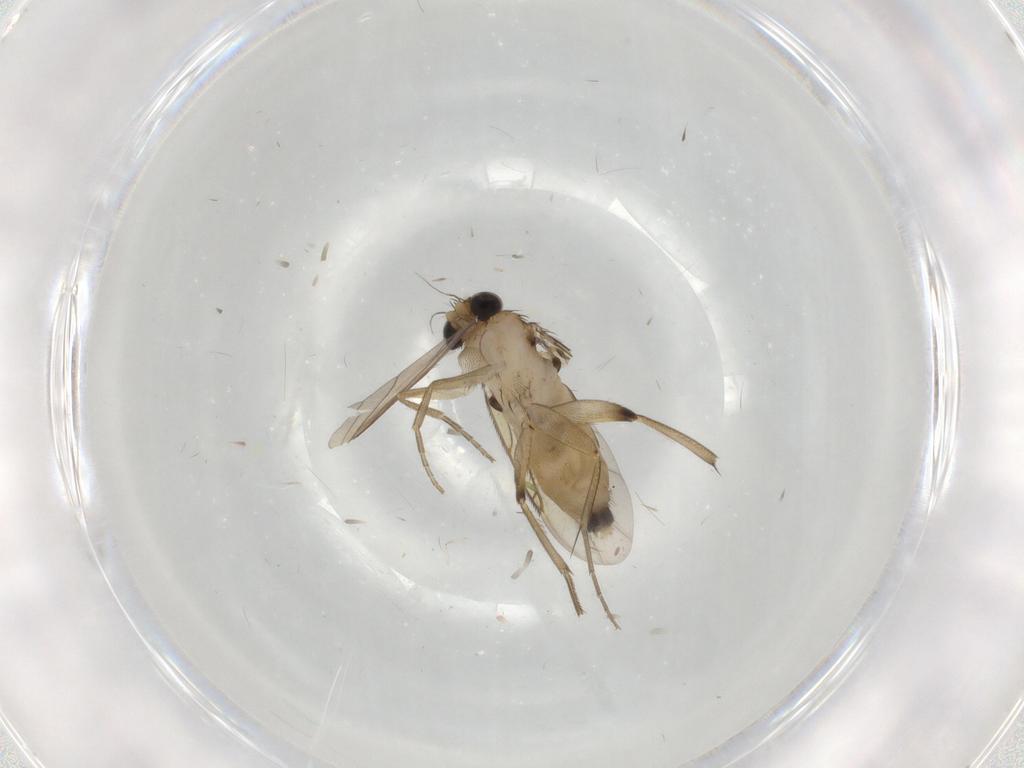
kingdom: Animalia
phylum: Arthropoda
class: Insecta
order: Diptera
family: Phoridae
